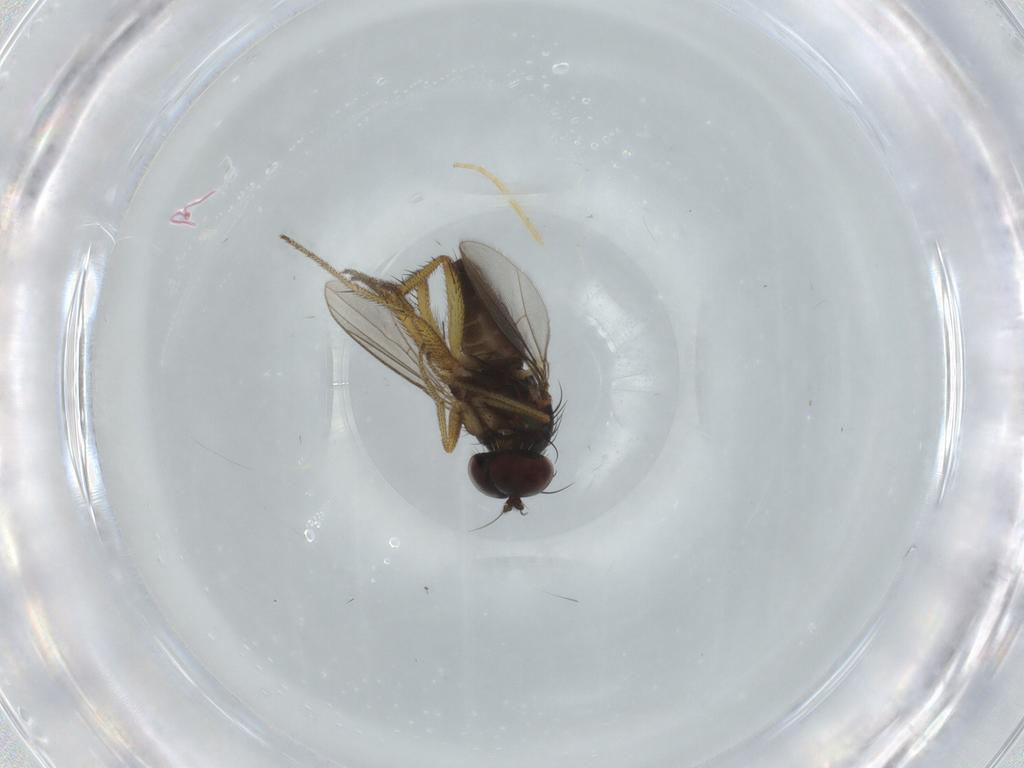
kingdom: Animalia
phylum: Arthropoda
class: Insecta
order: Diptera
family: Dolichopodidae
